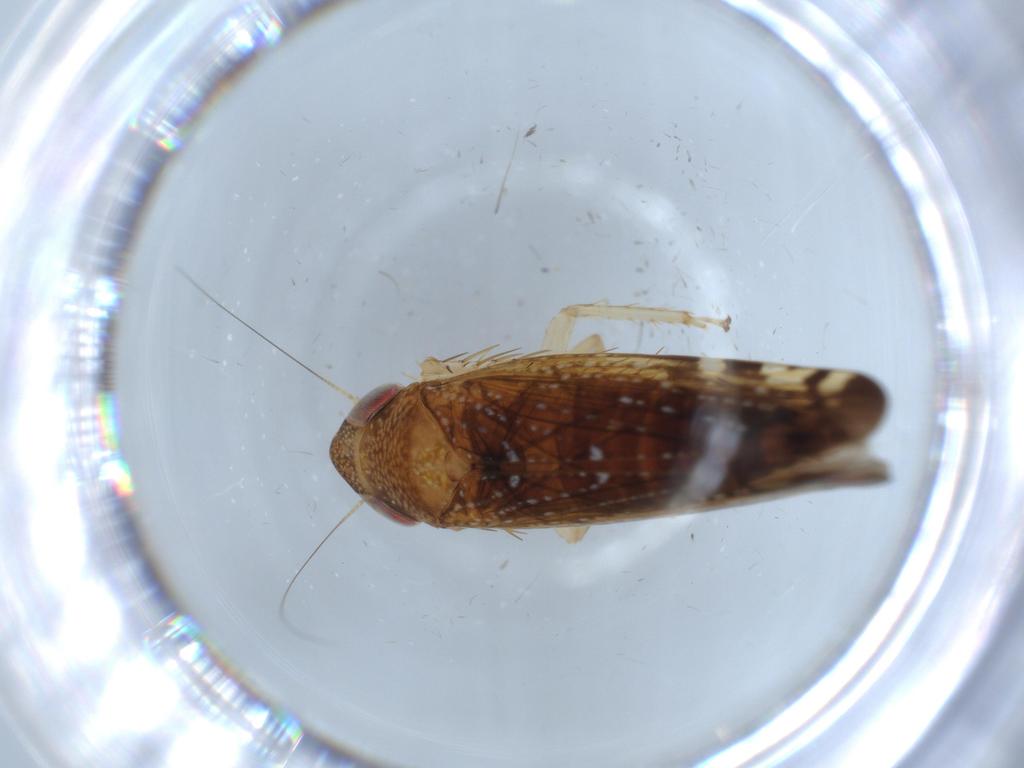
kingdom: Animalia
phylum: Arthropoda
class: Insecta
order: Hemiptera
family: Cicadellidae
